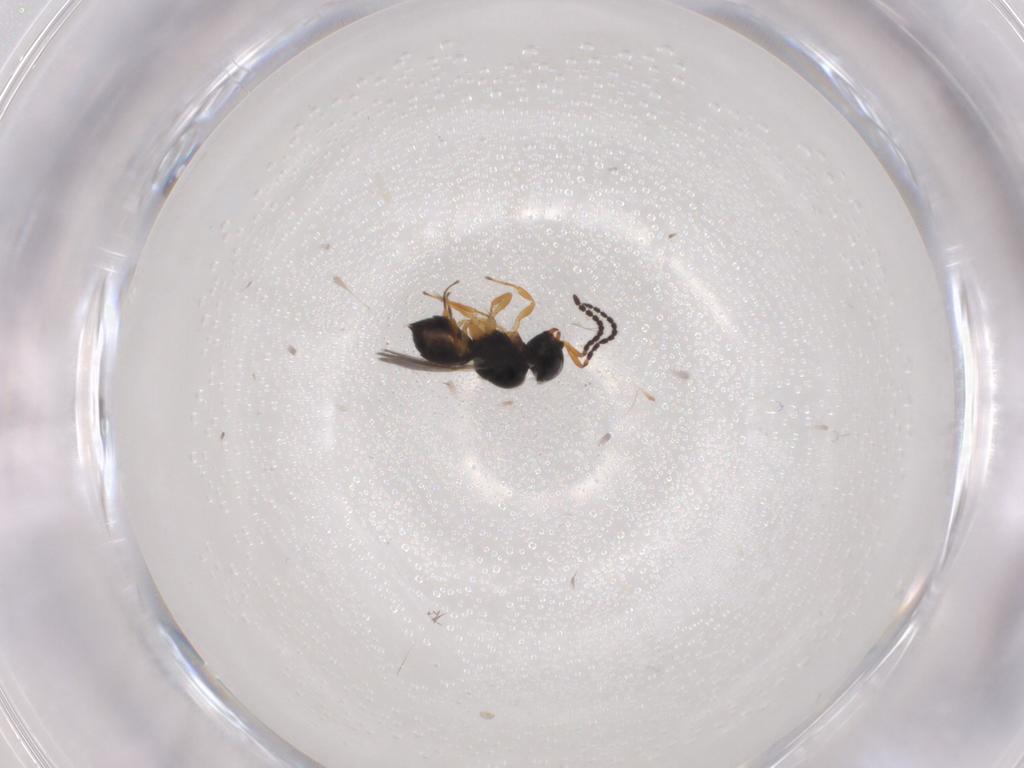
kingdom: Animalia
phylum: Arthropoda
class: Insecta
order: Hymenoptera
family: Scelionidae
